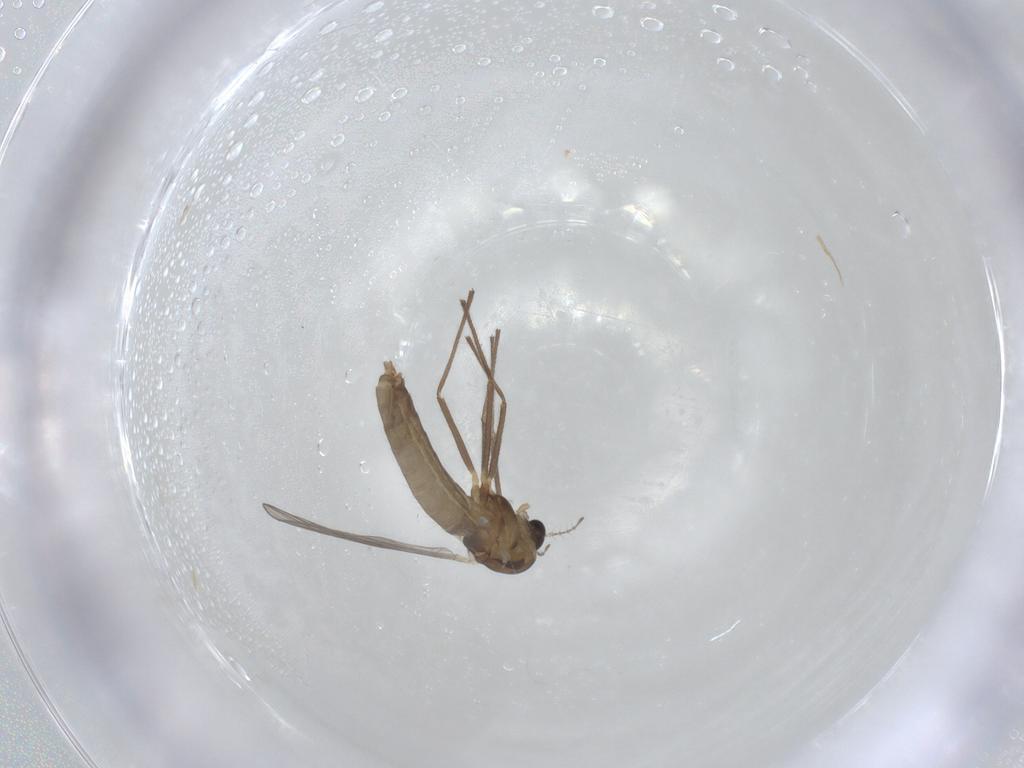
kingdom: Animalia
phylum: Arthropoda
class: Insecta
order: Diptera
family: Chironomidae
